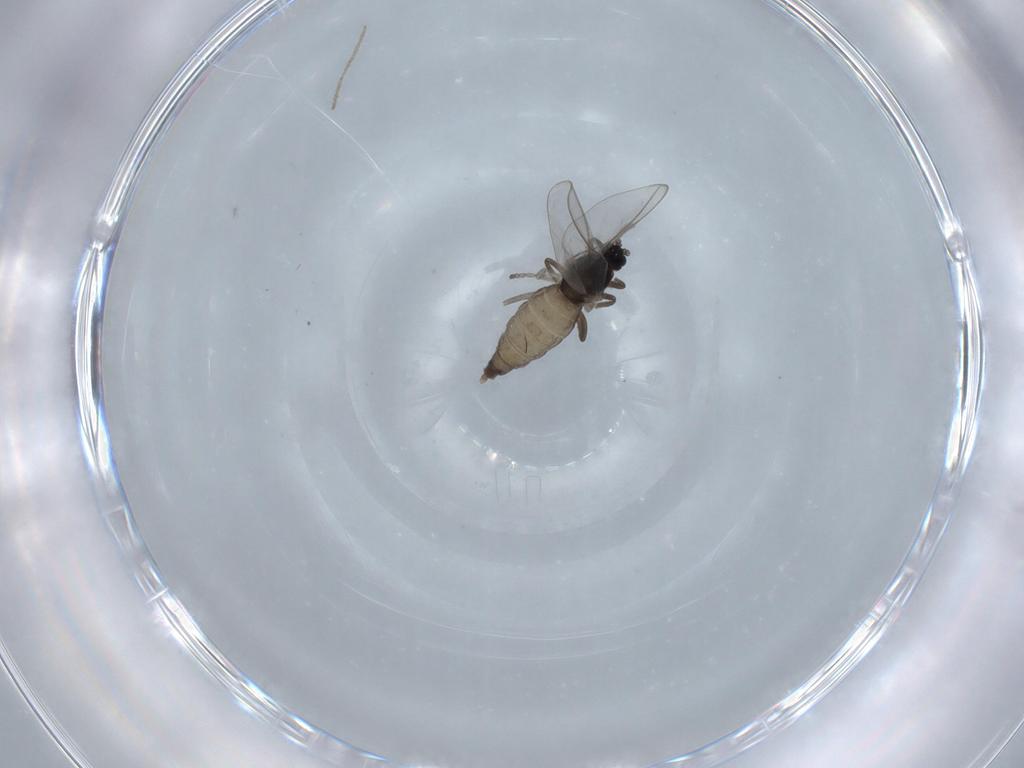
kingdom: Animalia
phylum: Arthropoda
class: Insecta
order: Diptera
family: Cecidomyiidae
